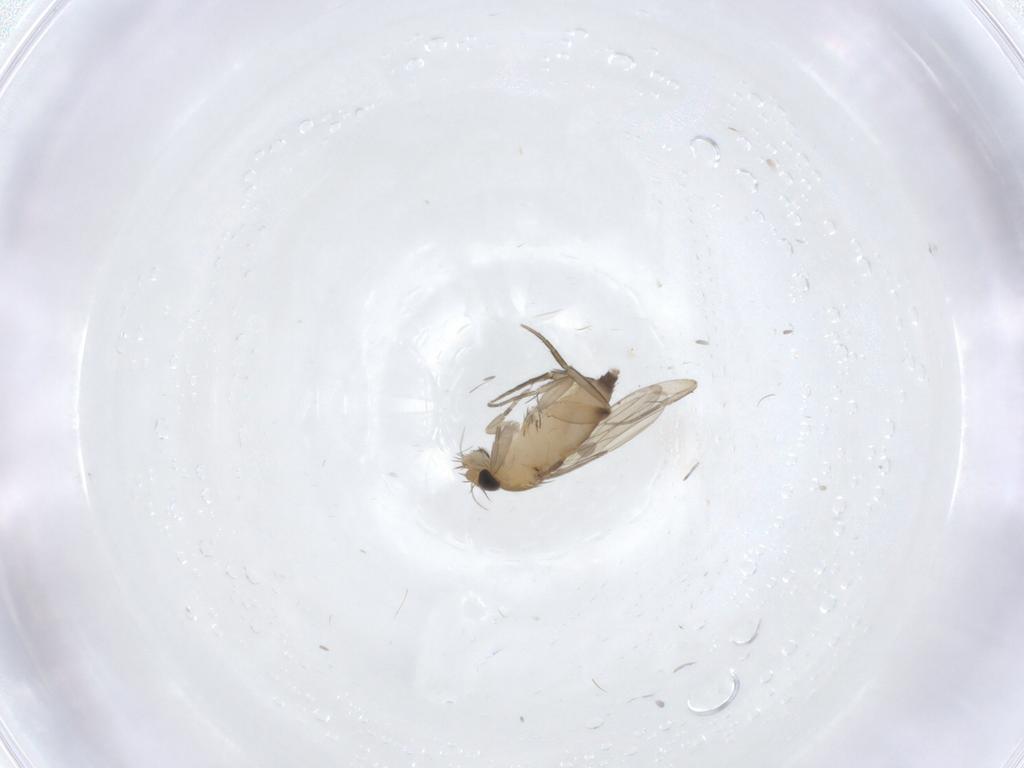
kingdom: Animalia
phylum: Arthropoda
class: Insecta
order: Diptera
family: Phoridae
